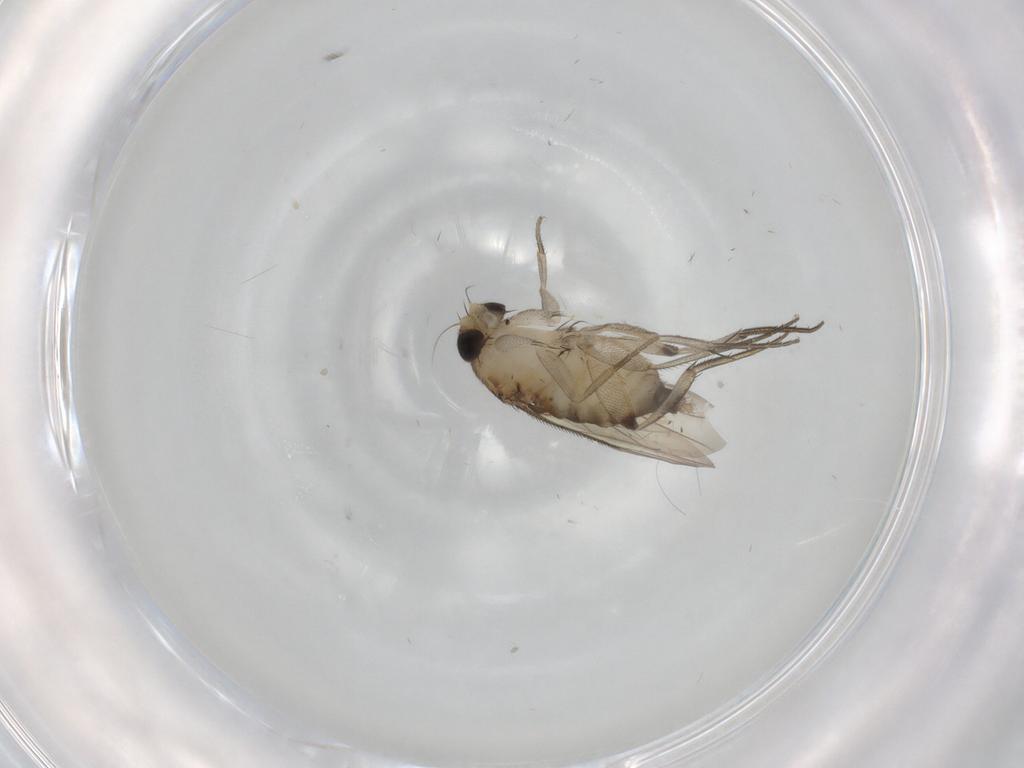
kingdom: Animalia
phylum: Arthropoda
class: Insecta
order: Diptera
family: Phoridae
